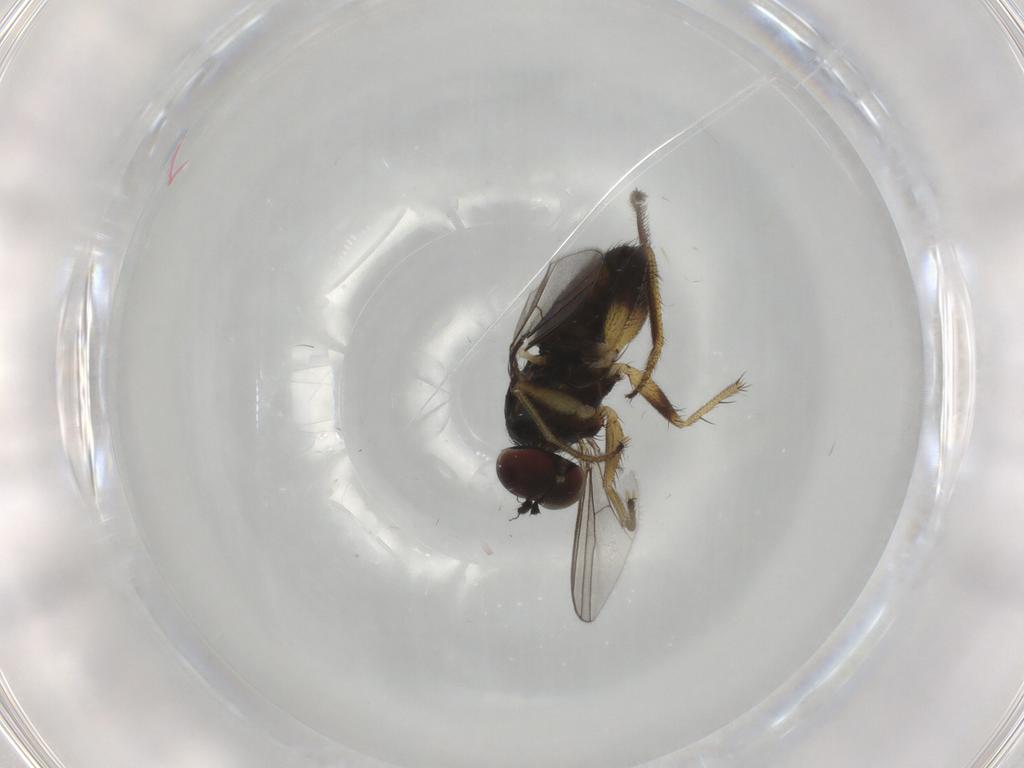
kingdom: Animalia
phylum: Arthropoda
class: Insecta
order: Diptera
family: Dolichopodidae
